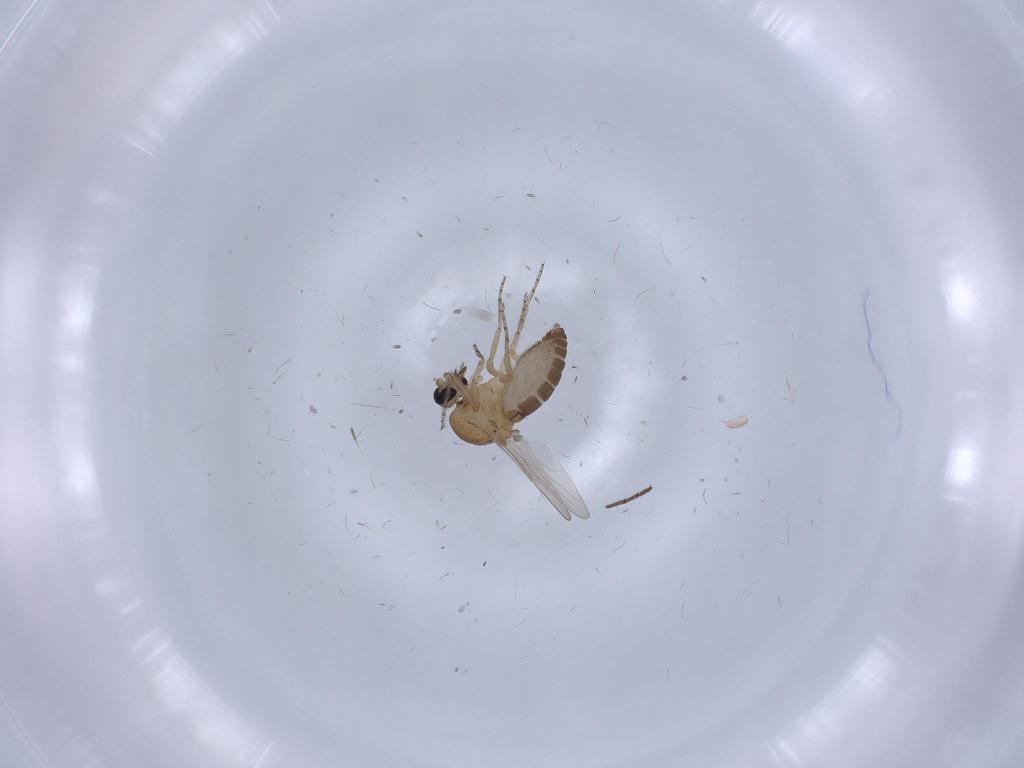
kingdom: Animalia
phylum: Arthropoda
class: Insecta
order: Diptera
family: Ceratopogonidae
